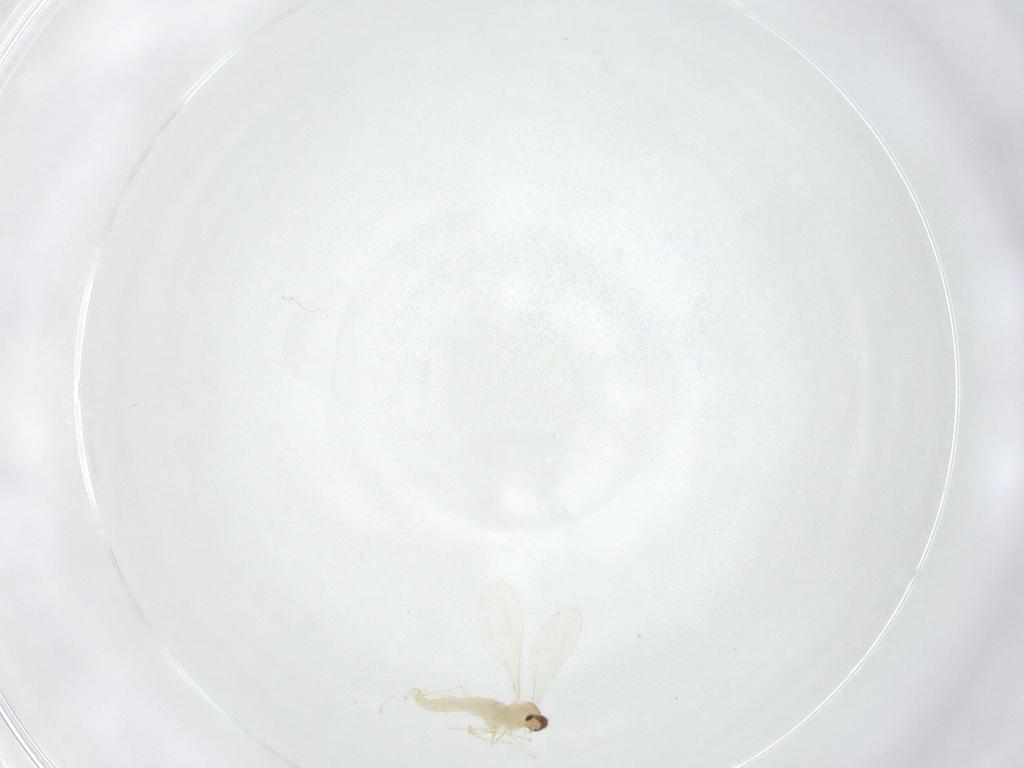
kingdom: Animalia
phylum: Arthropoda
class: Insecta
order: Diptera
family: Cecidomyiidae
